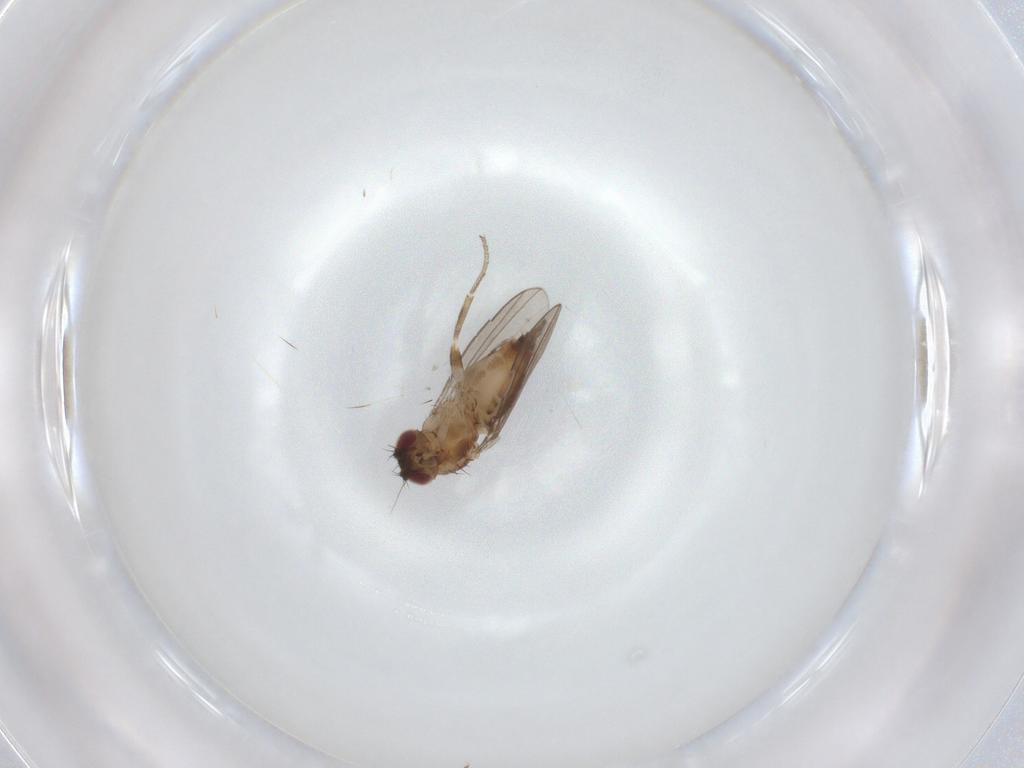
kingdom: Animalia
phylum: Arthropoda
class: Insecta
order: Diptera
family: Milichiidae
